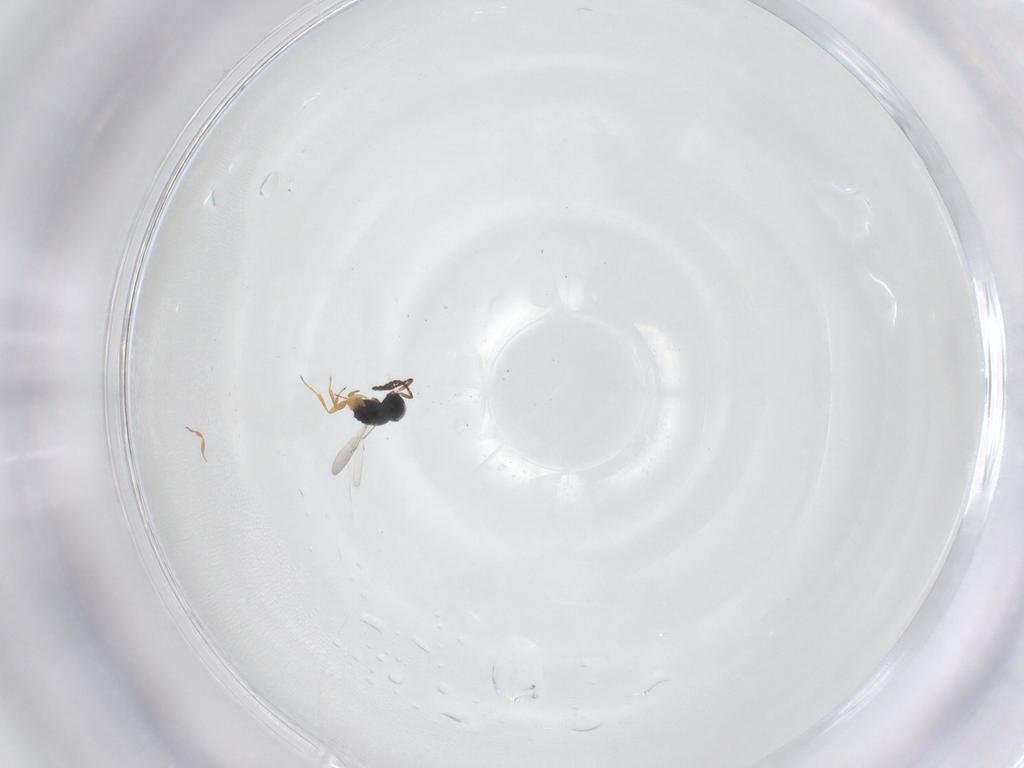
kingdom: Animalia
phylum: Arthropoda
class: Insecta
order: Hymenoptera
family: Scelionidae
